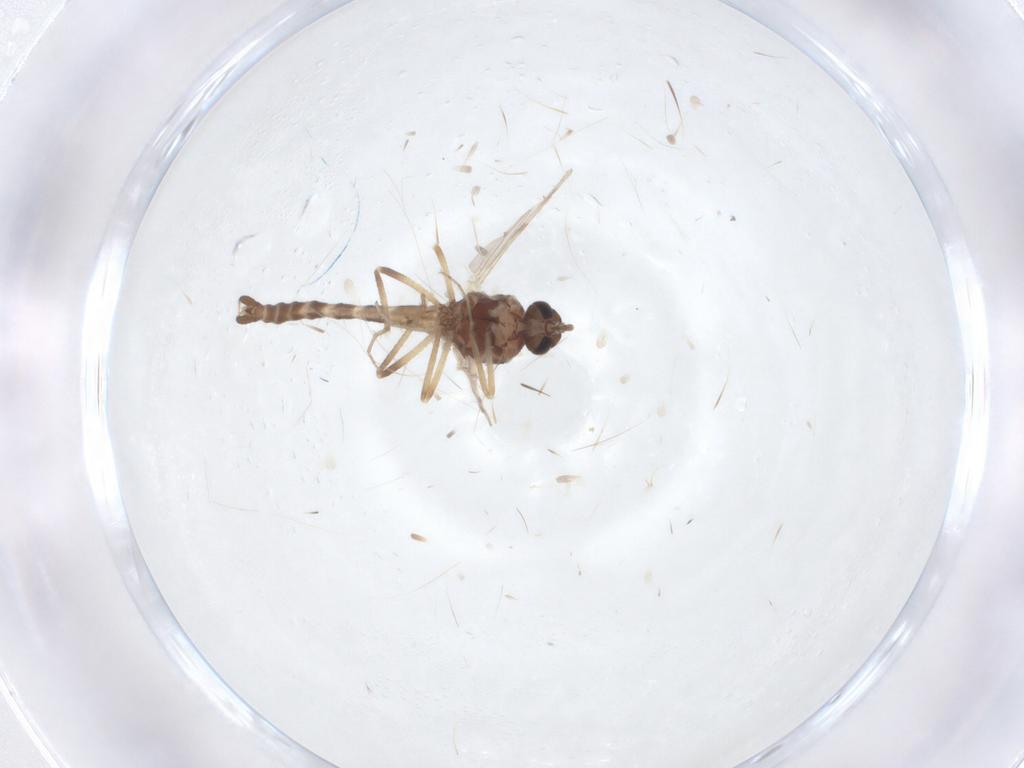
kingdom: Animalia
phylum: Arthropoda
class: Insecta
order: Diptera
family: Ceratopogonidae
